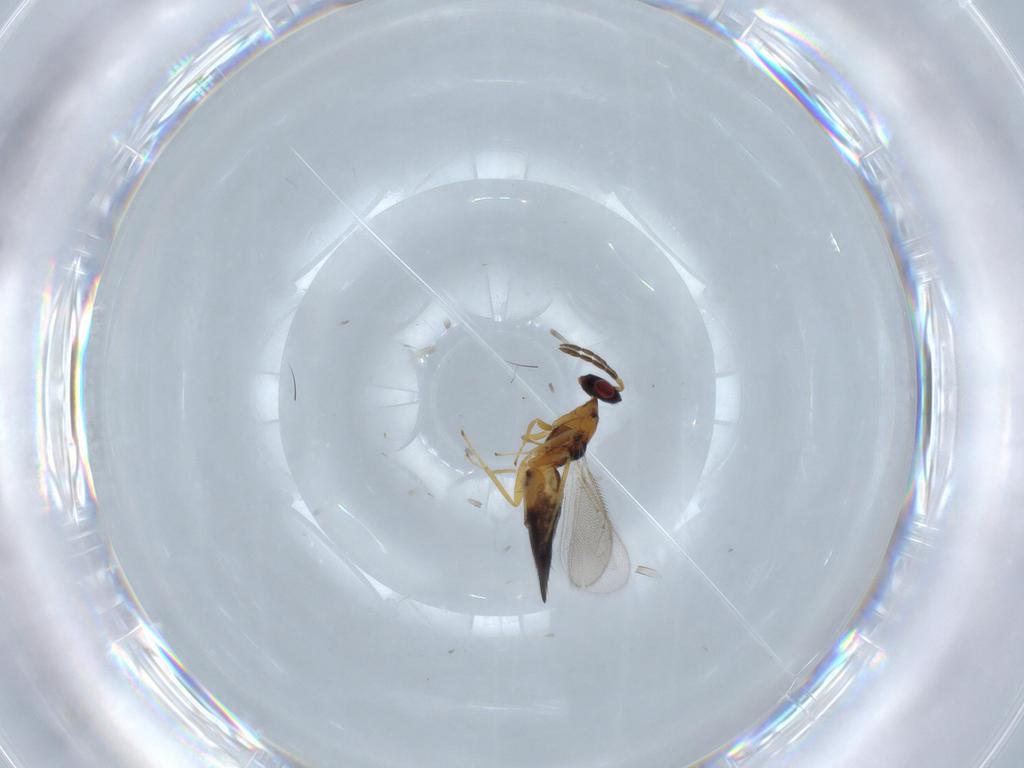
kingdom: Animalia
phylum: Arthropoda
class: Insecta
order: Hymenoptera
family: Eulophidae
